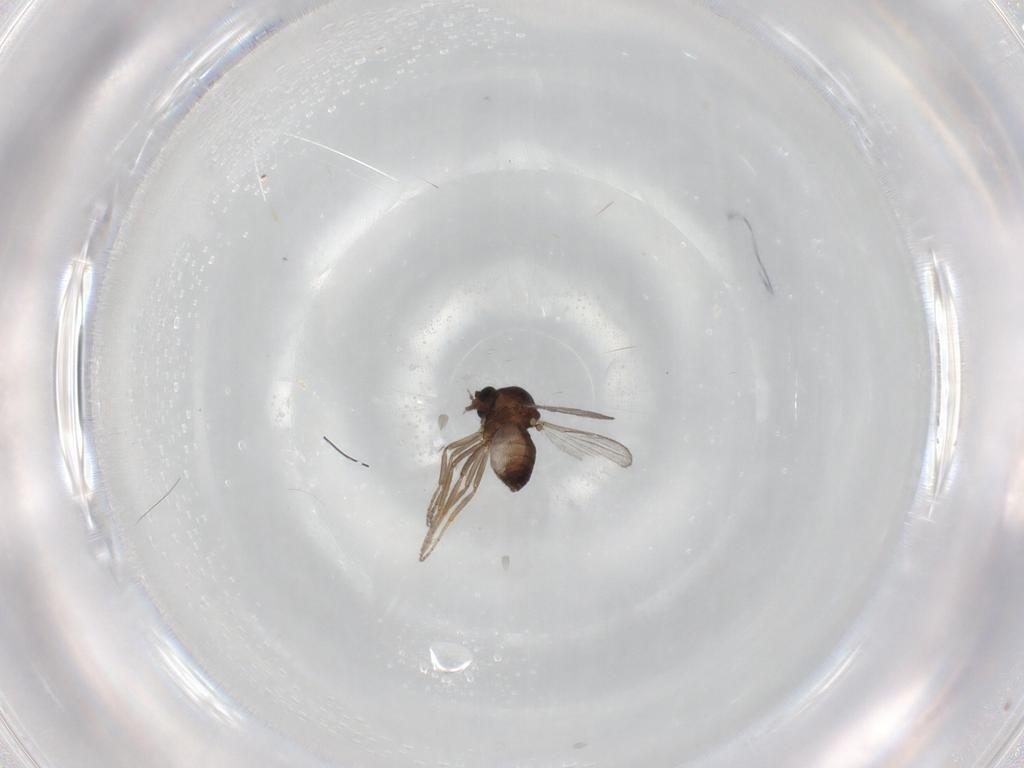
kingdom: Animalia
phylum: Arthropoda
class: Insecta
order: Diptera
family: Ceratopogonidae
